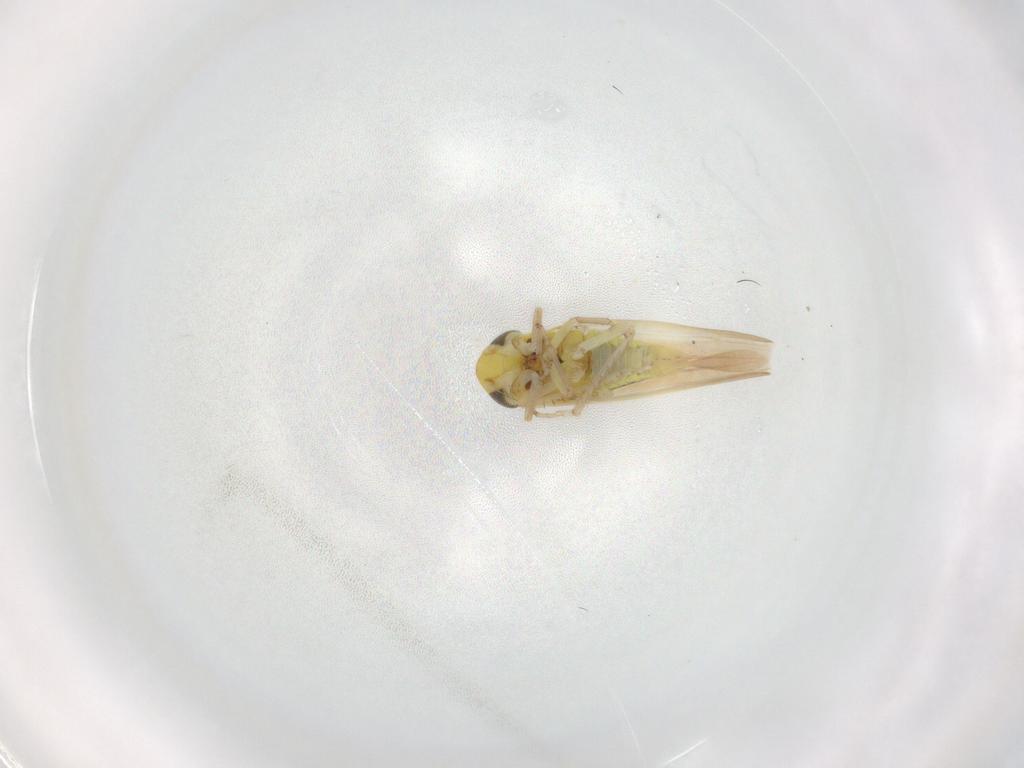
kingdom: Animalia
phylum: Arthropoda
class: Insecta
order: Hemiptera
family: Cicadellidae
